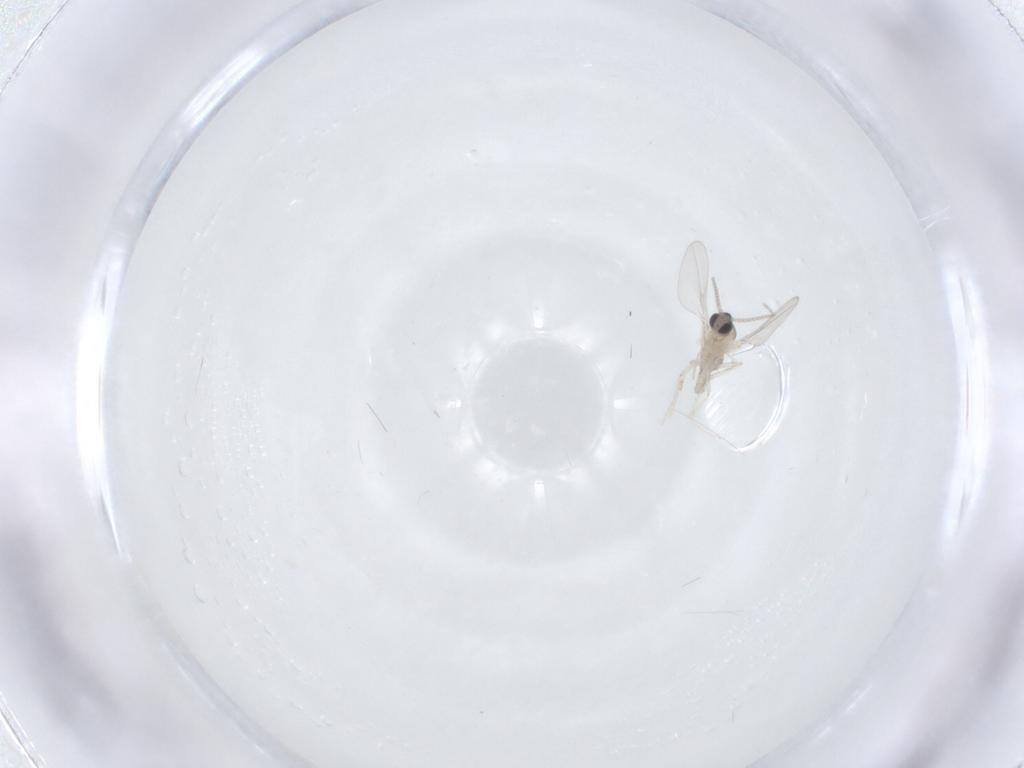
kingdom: Animalia
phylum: Arthropoda
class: Insecta
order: Diptera
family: Cecidomyiidae
